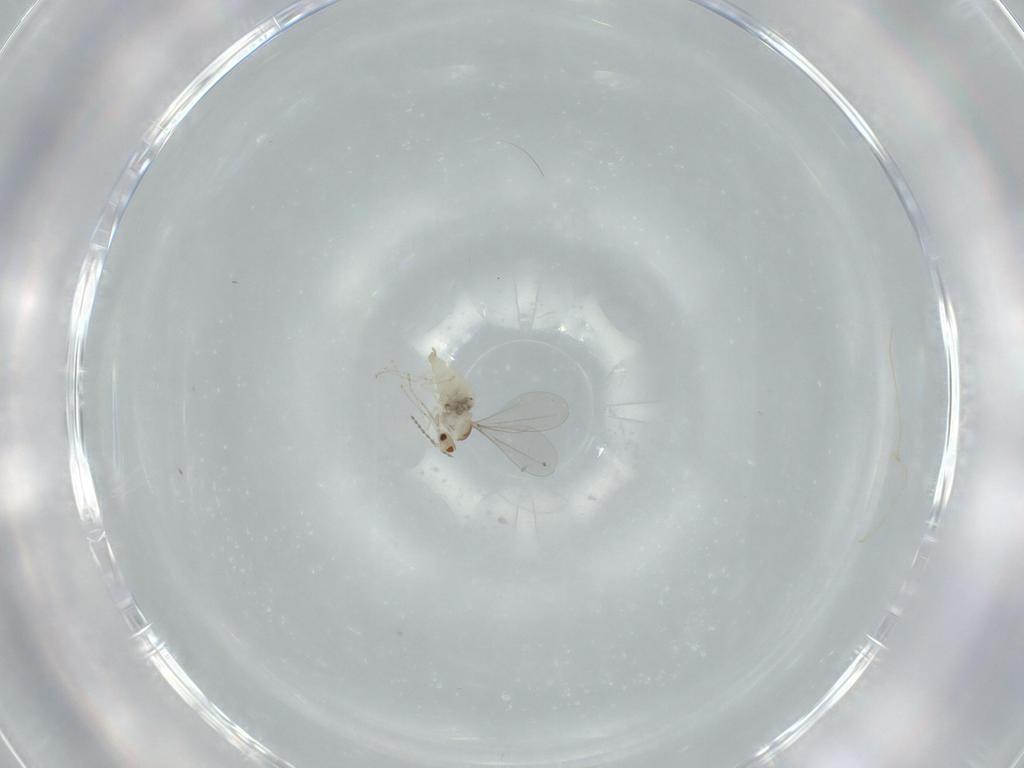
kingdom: Animalia
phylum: Arthropoda
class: Insecta
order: Diptera
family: Cecidomyiidae
